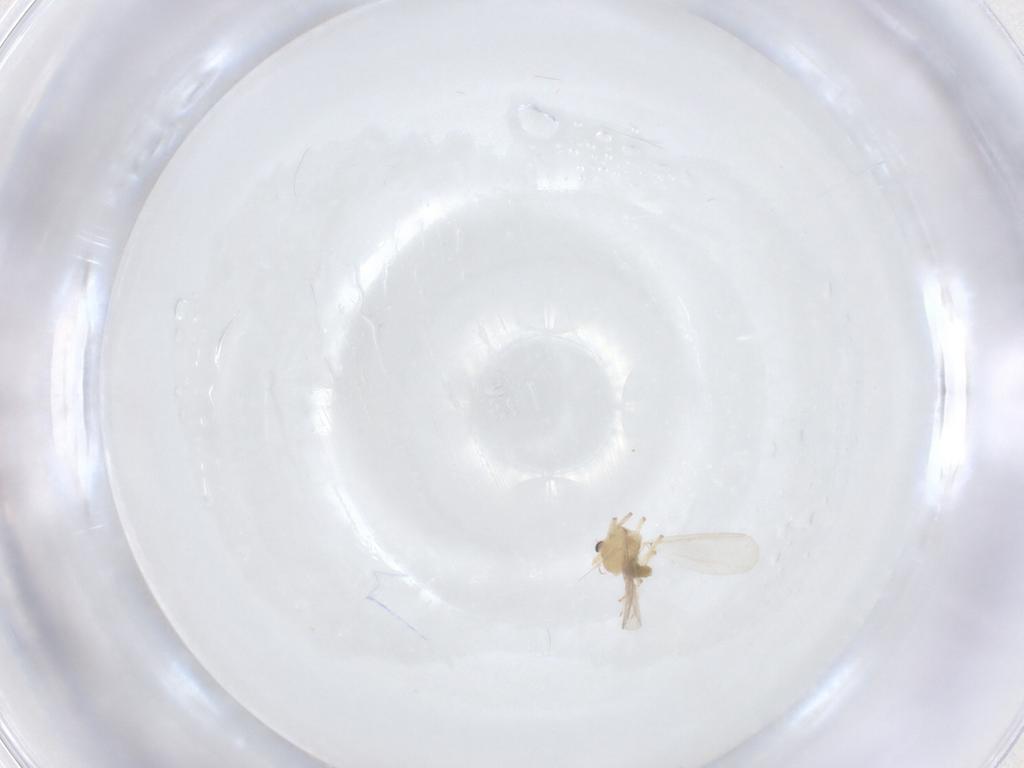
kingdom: Animalia
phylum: Arthropoda
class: Insecta
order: Diptera
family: Chironomidae
